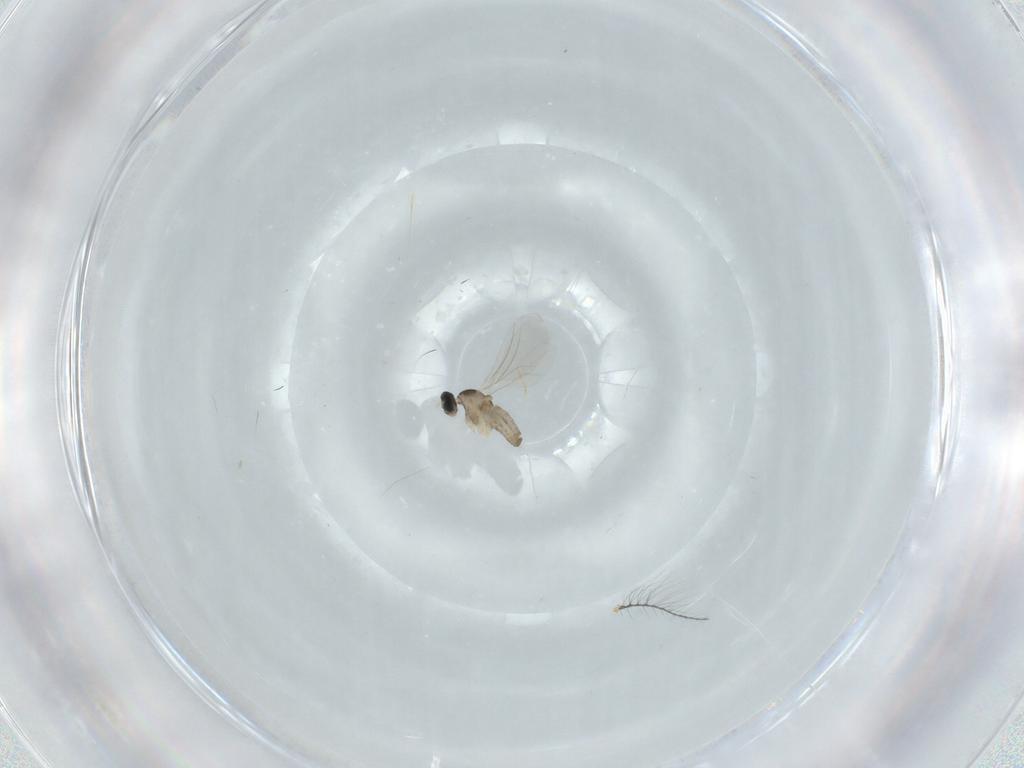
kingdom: Animalia
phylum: Arthropoda
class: Insecta
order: Diptera
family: Cecidomyiidae
